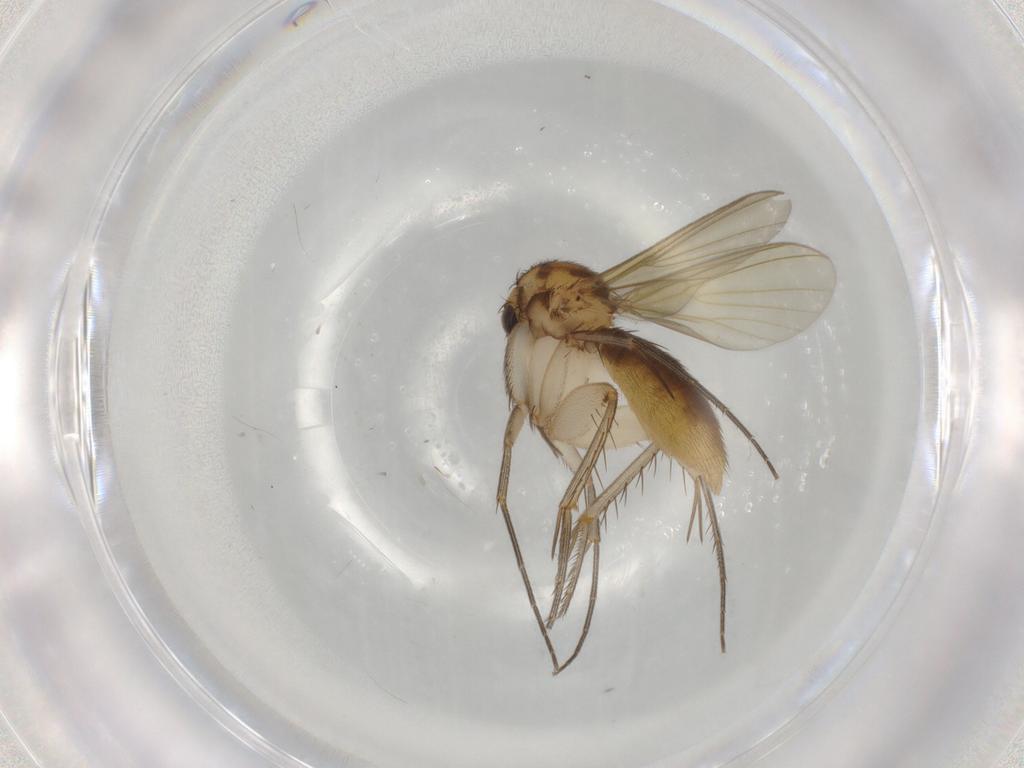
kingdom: Animalia
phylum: Arthropoda
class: Insecta
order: Diptera
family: Mycetophilidae
